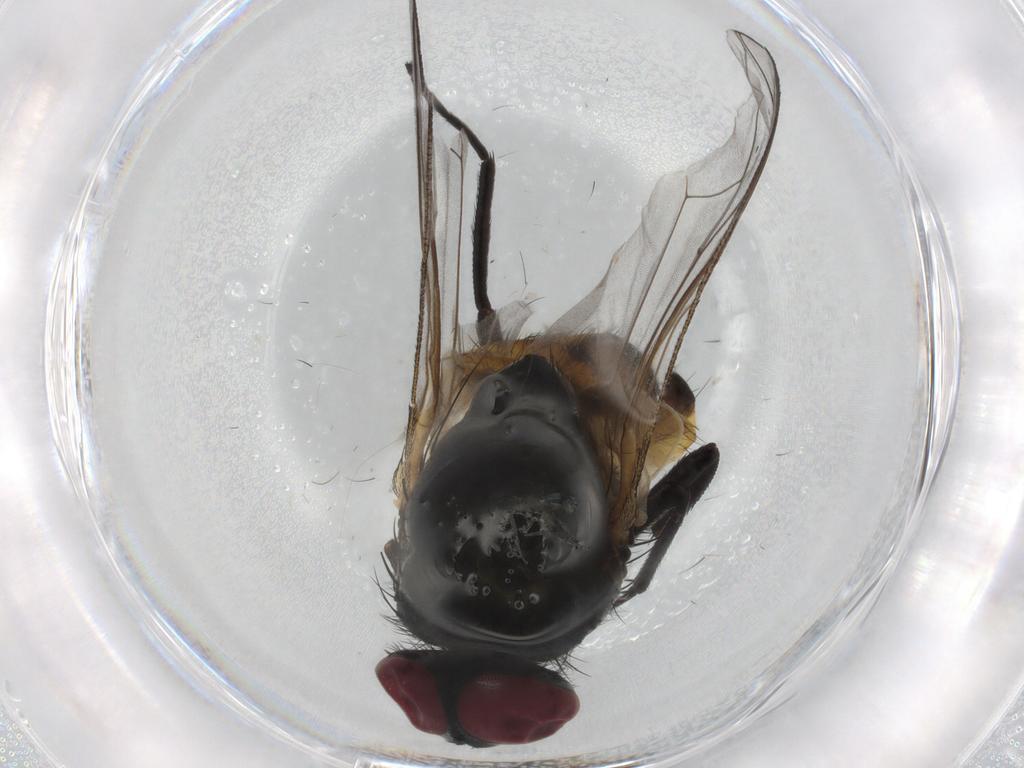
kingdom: Animalia
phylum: Arthropoda
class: Insecta
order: Diptera
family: Muscidae
